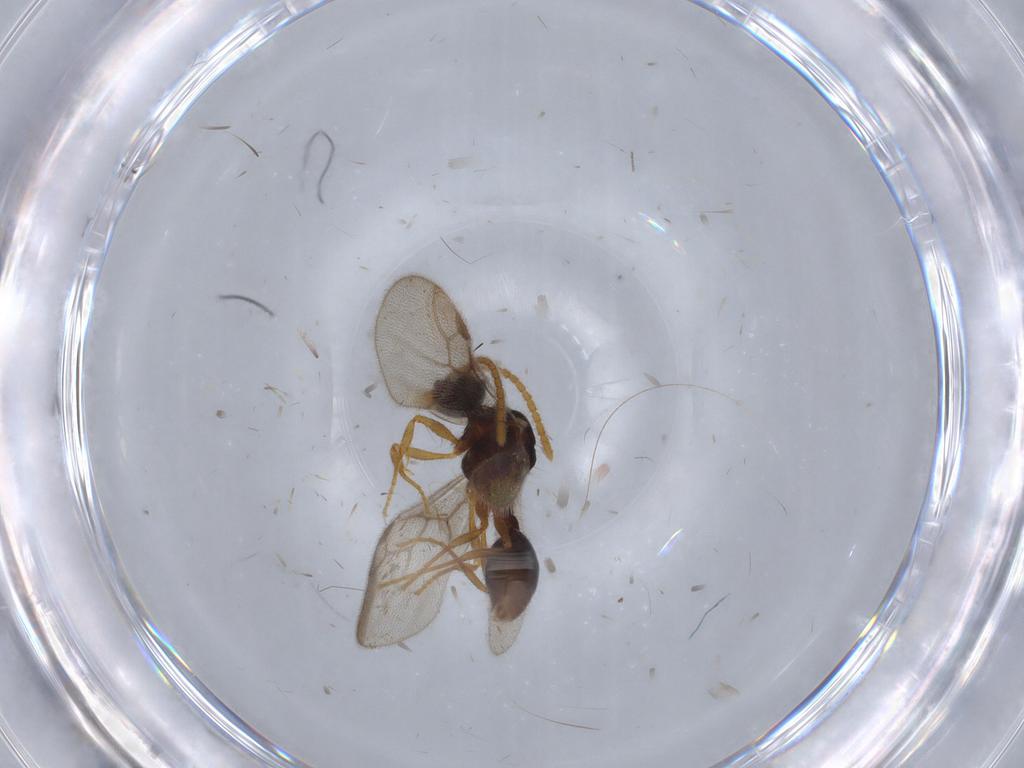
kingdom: Animalia
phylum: Arthropoda
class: Insecta
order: Hymenoptera
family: Formicidae
